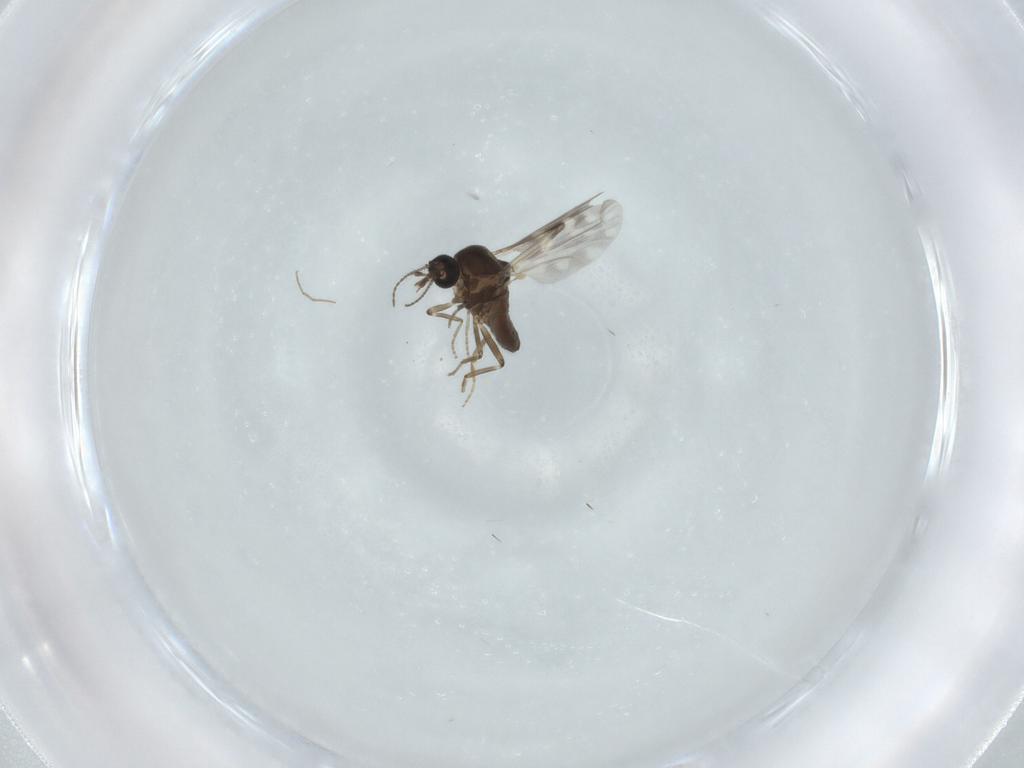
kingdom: Animalia
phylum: Arthropoda
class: Insecta
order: Diptera
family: Ceratopogonidae
